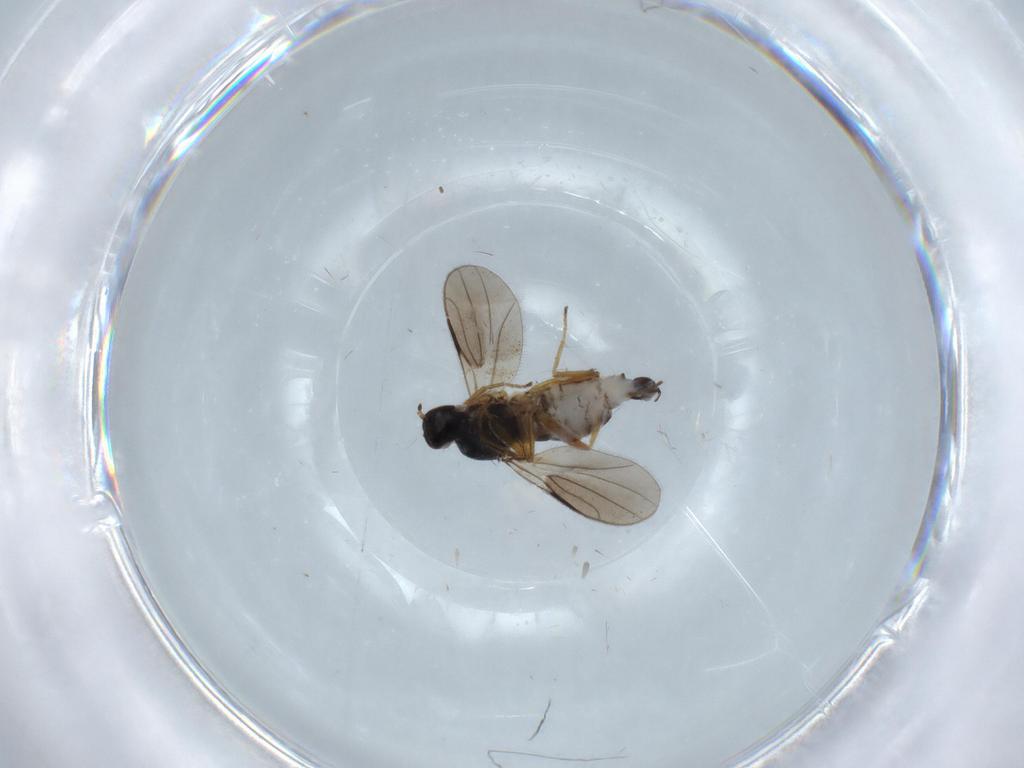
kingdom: Animalia
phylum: Arthropoda
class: Insecta
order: Diptera
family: Hybotidae
